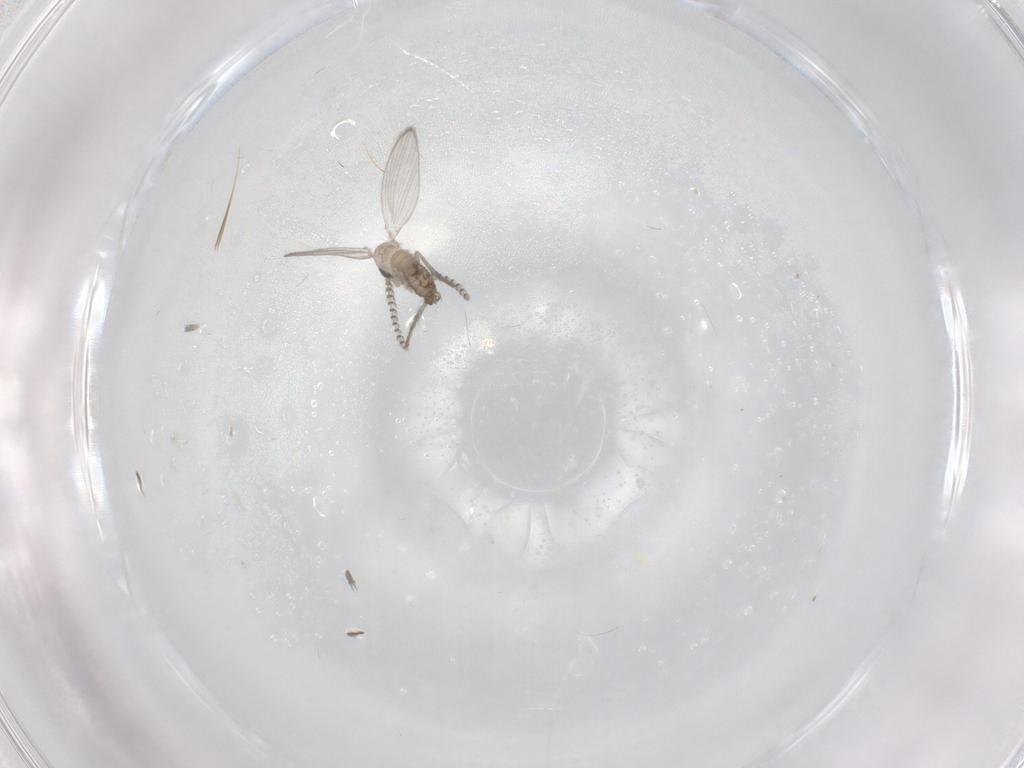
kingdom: Animalia
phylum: Arthropoda
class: Insecta
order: Diptera
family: Psychodidae
